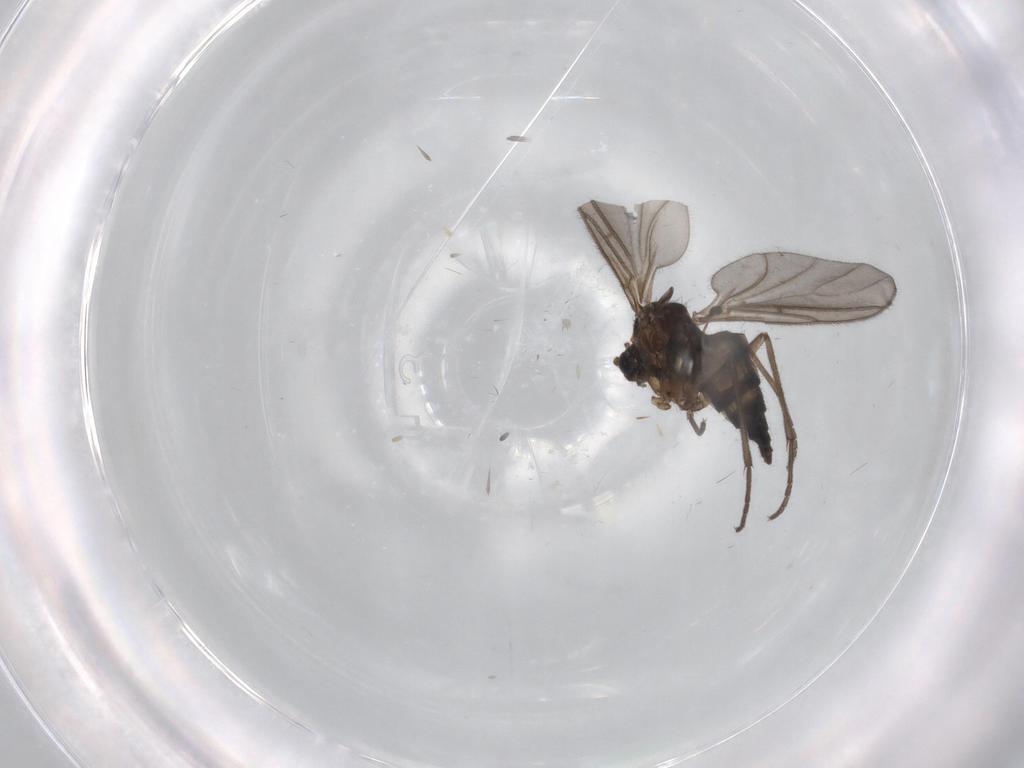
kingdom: Animalia
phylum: Arthropoda
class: Insecta
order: Diptera
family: Sciaridae
